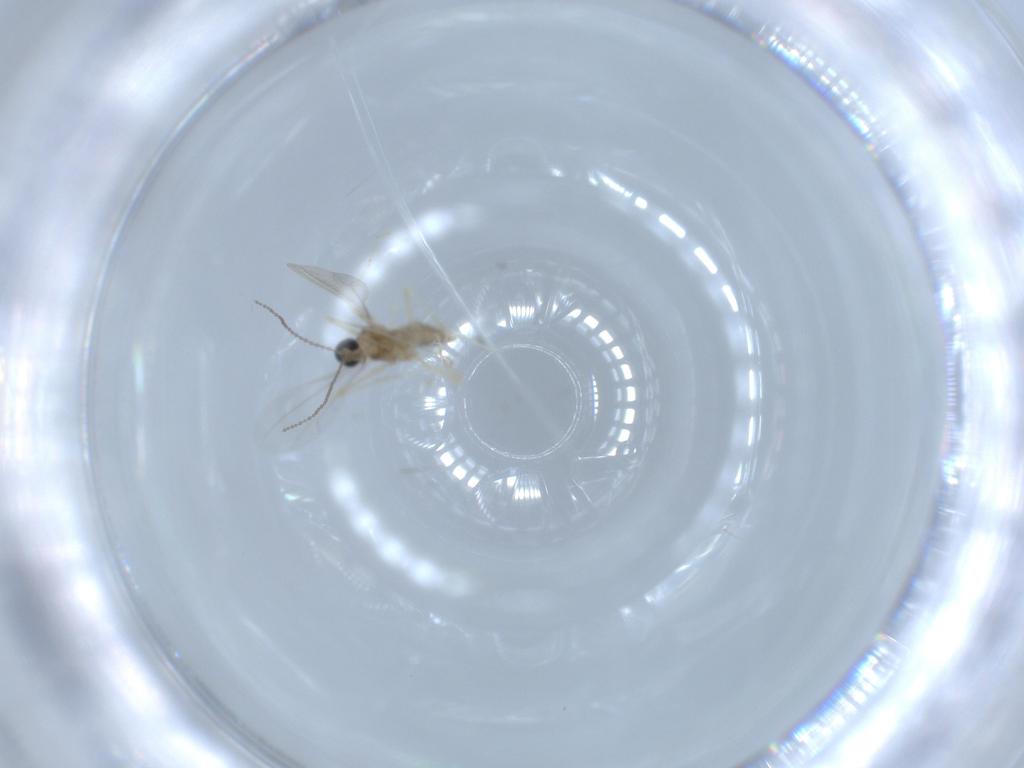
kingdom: Animalia
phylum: Arthropoda
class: Insecta
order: Diptera
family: Cecidomyiidae
